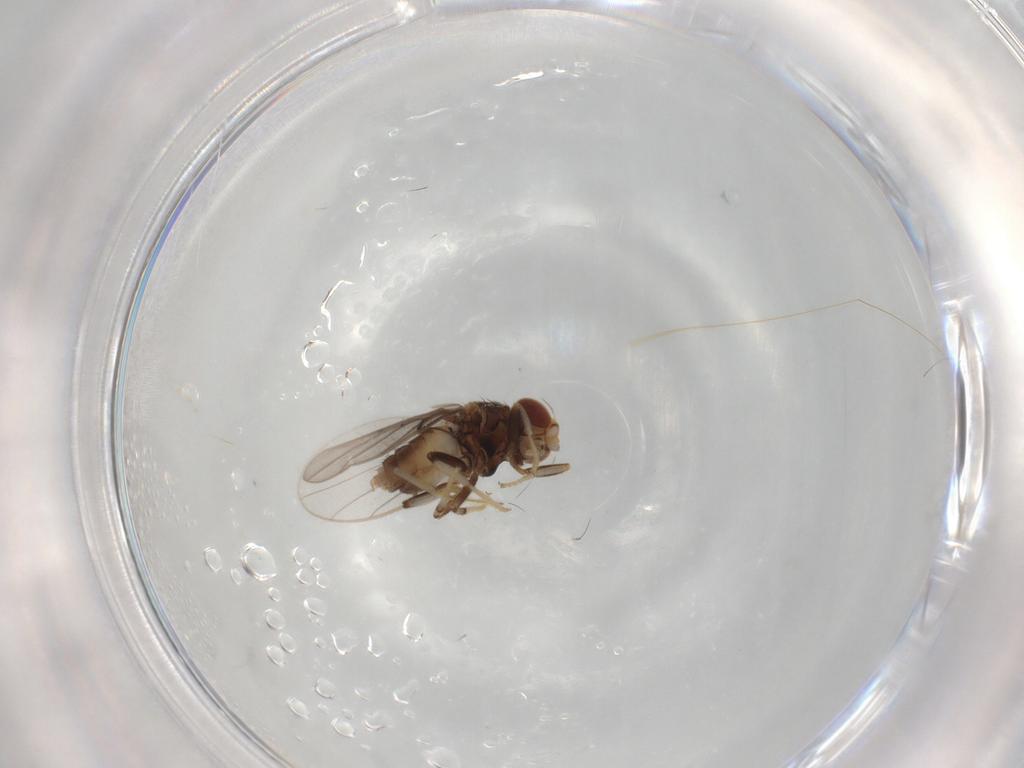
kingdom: Animalia
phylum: Arthropoda
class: Insecta
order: Diptera
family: Chloropidae
